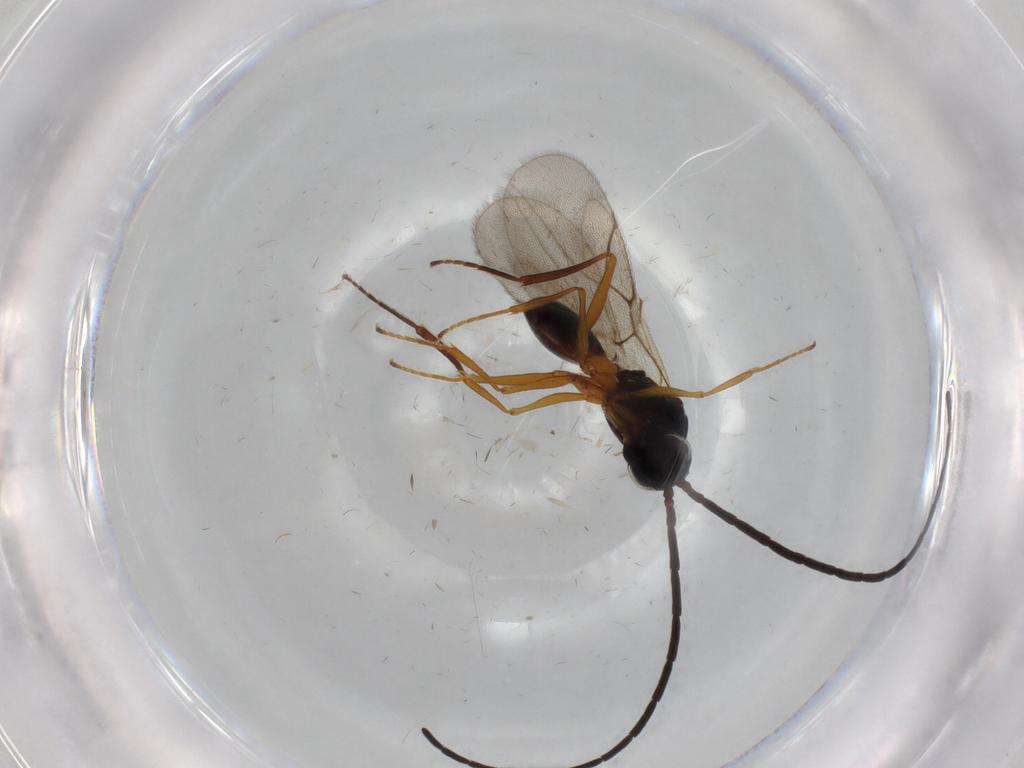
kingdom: Animalia
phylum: Arthropoda
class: Insecta
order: Hymenoptera
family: Figitidae
